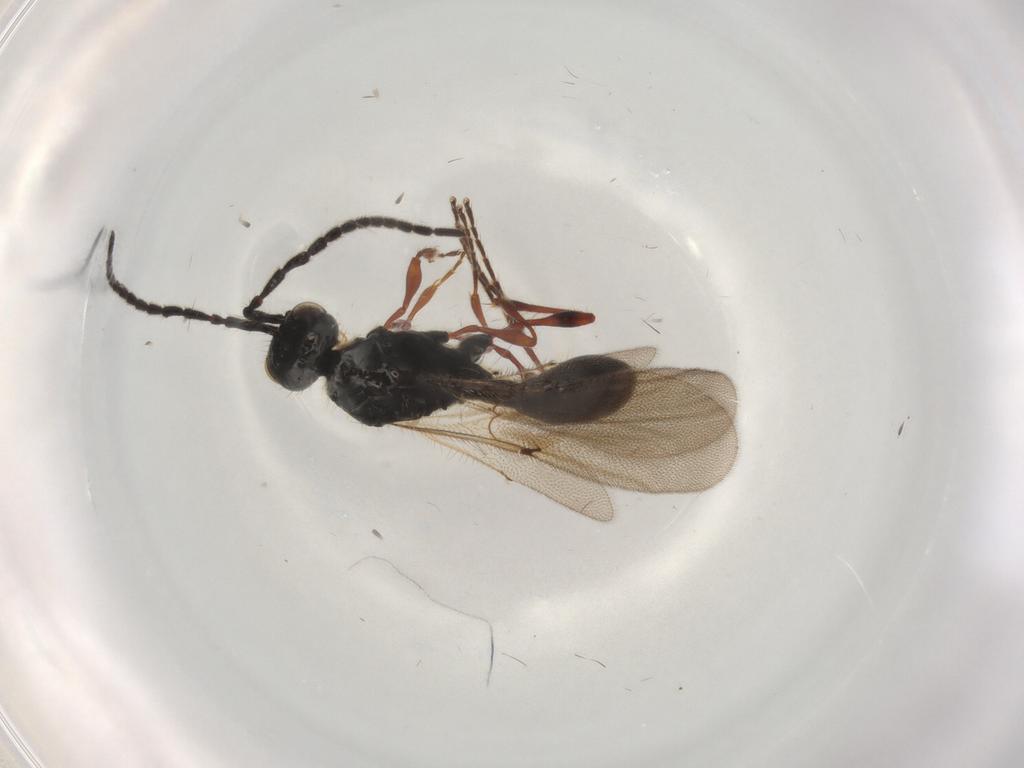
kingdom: Animalia
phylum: Arthropoda
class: Insecta
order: Hymenoptera
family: Diapriidae
